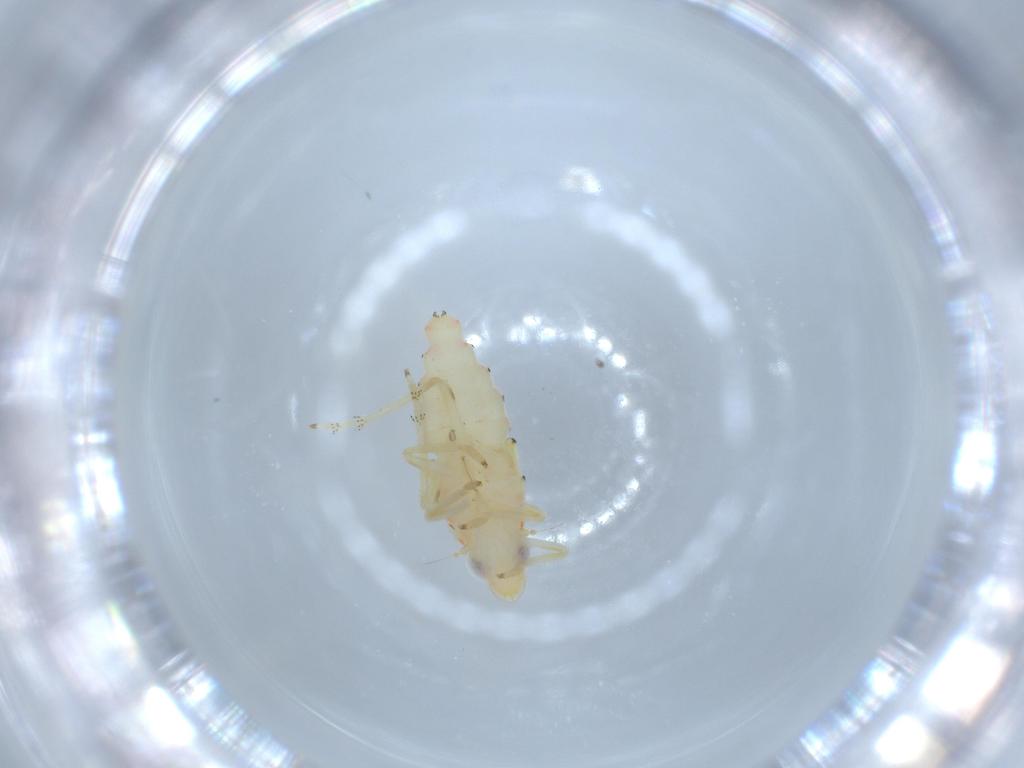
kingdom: Animalia
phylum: Arthropoda
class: Insecta
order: Hemiptera
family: Tropiduchidae
